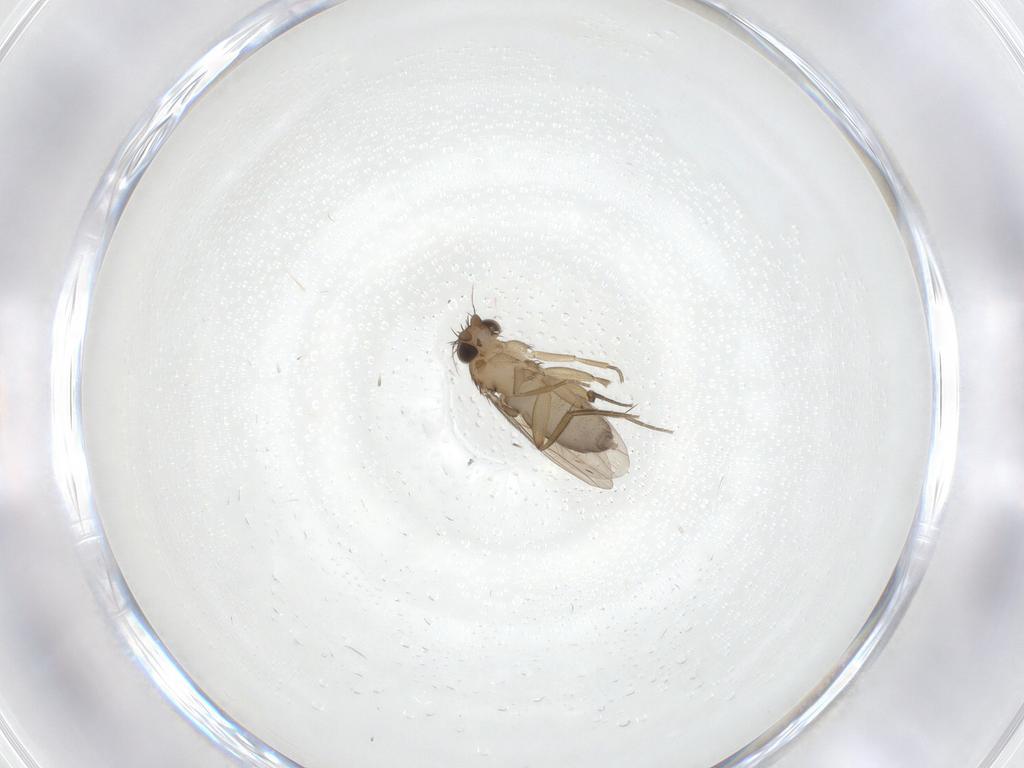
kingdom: Animalia
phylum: Arthropoda
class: Insecta
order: Diptera
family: Phoridae
